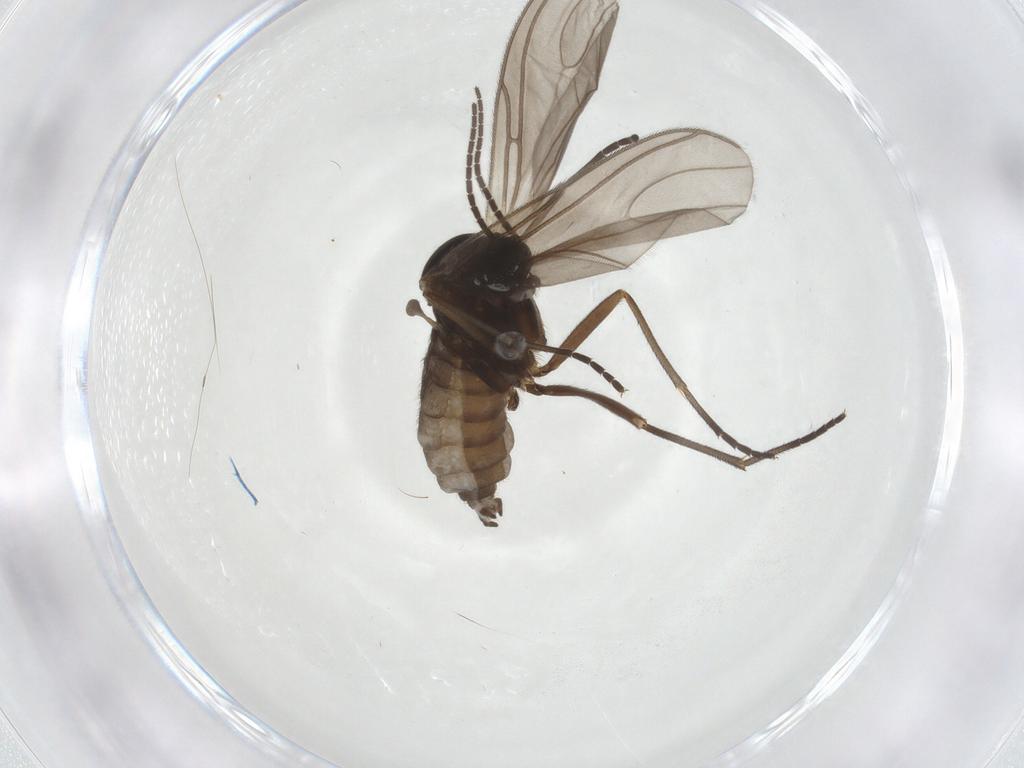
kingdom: Animalia
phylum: Arthropoda
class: Insecta
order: Diptera
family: Sciaridae
